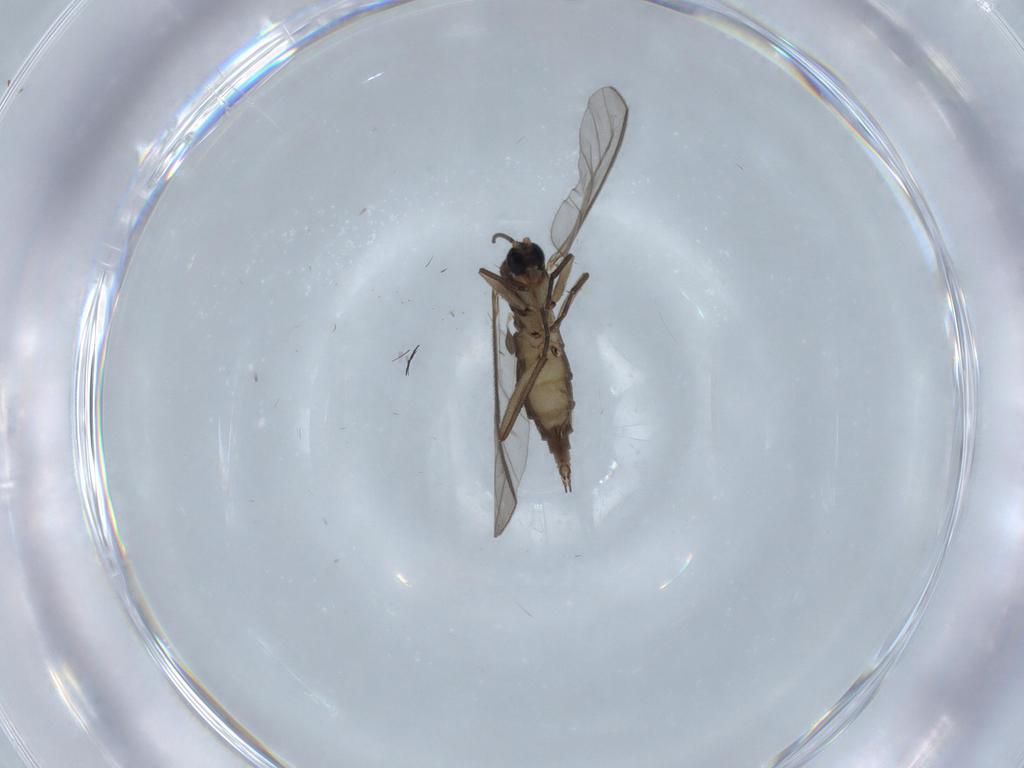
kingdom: Animalia
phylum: Arthropoda
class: Insecta
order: Diptera
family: Sciaridae
